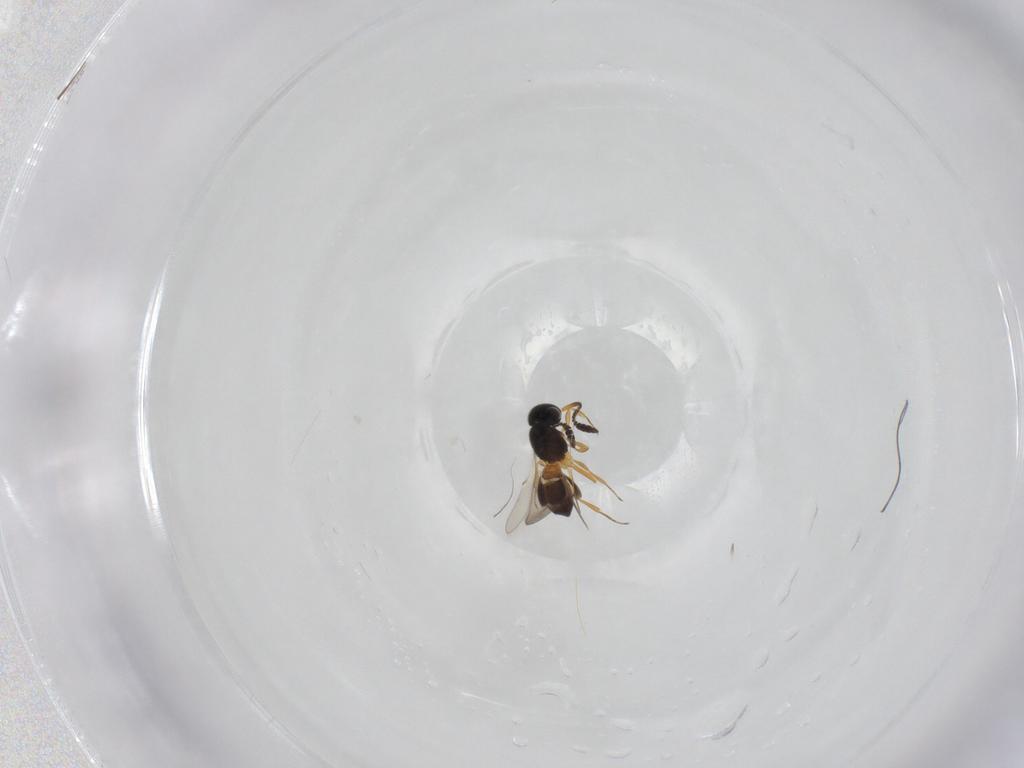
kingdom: Animalia
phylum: Arthropoda
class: Insecta
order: Hymenoptera
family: Scelionidae
